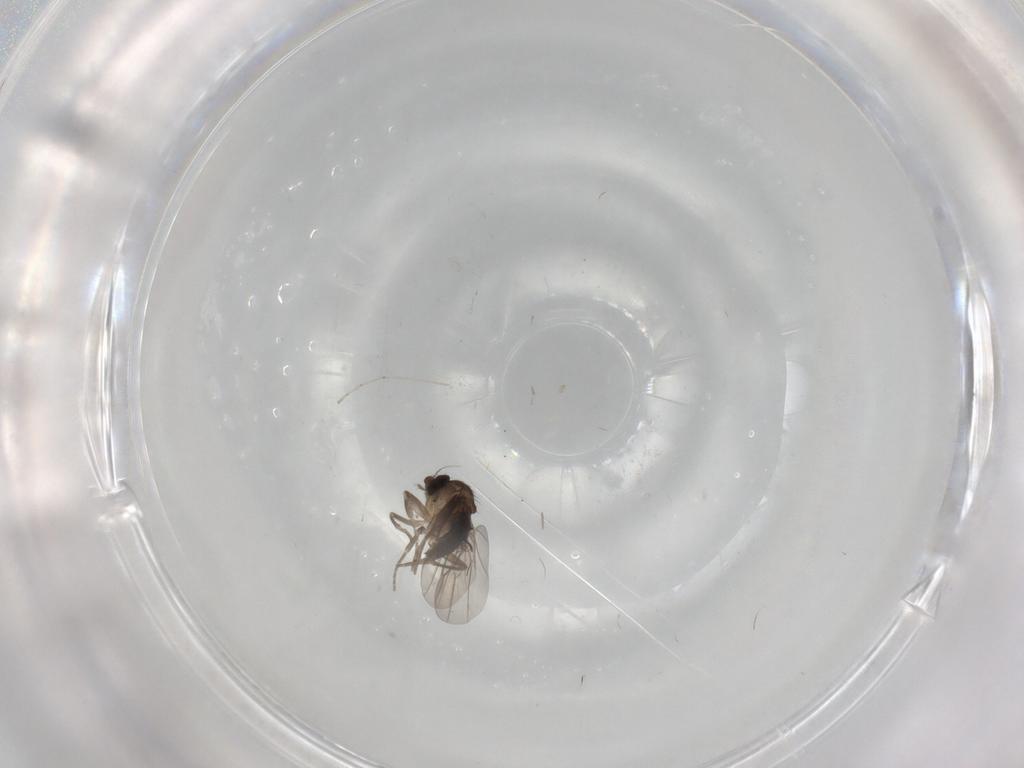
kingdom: Animalia
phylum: Arthropoda
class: Insecta
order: Diptera
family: Phoridae
